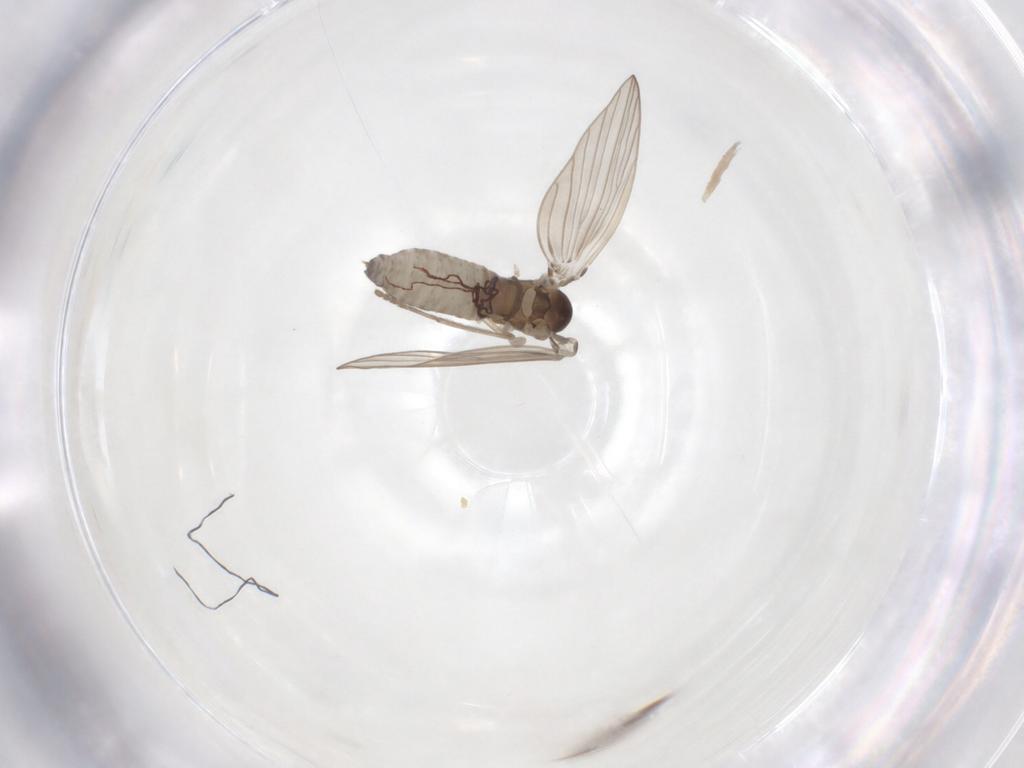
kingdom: Animalia
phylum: Arthropoda
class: Insecta
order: Diptera
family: Psychodidae
